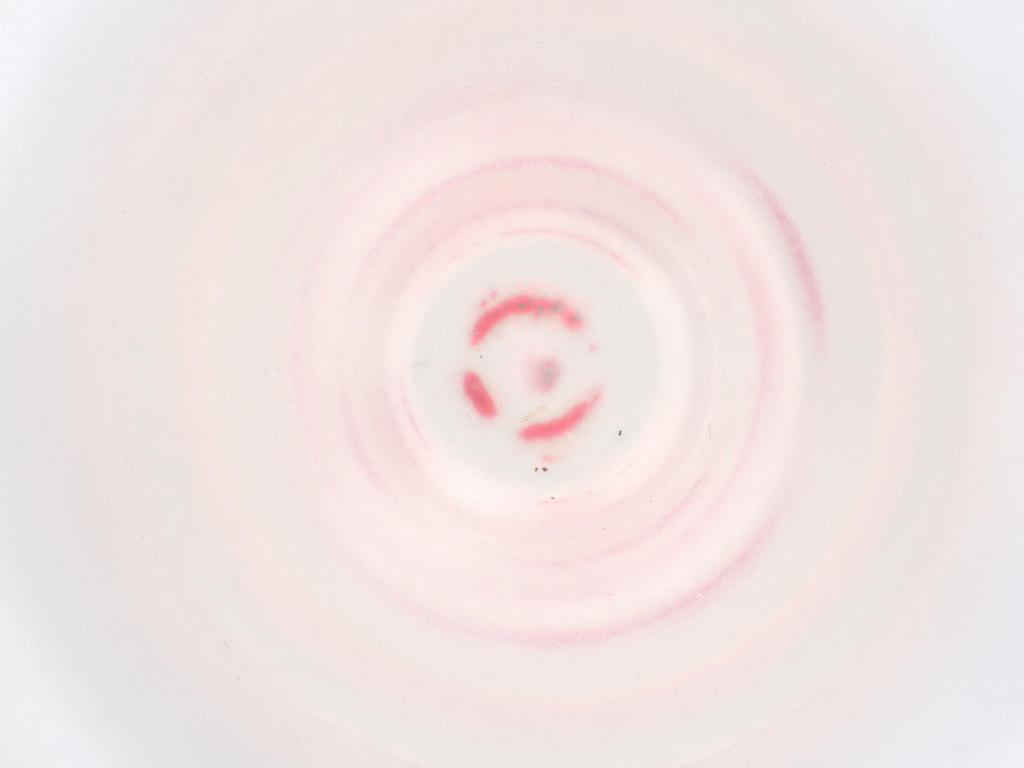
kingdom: Animalia
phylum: Arthropoda
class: Insecta
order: Diptera
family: Cecidomyiidae
